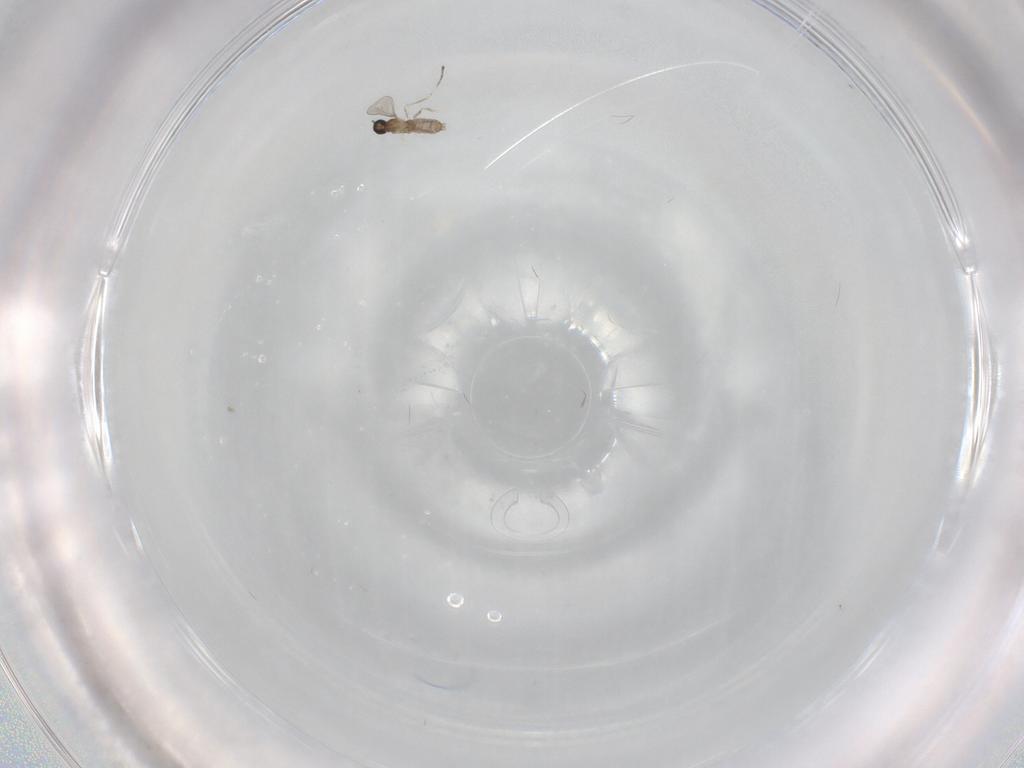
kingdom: Animalia
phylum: Arthropoda
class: Insecta
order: Diptera
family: Cecidomyiidae
